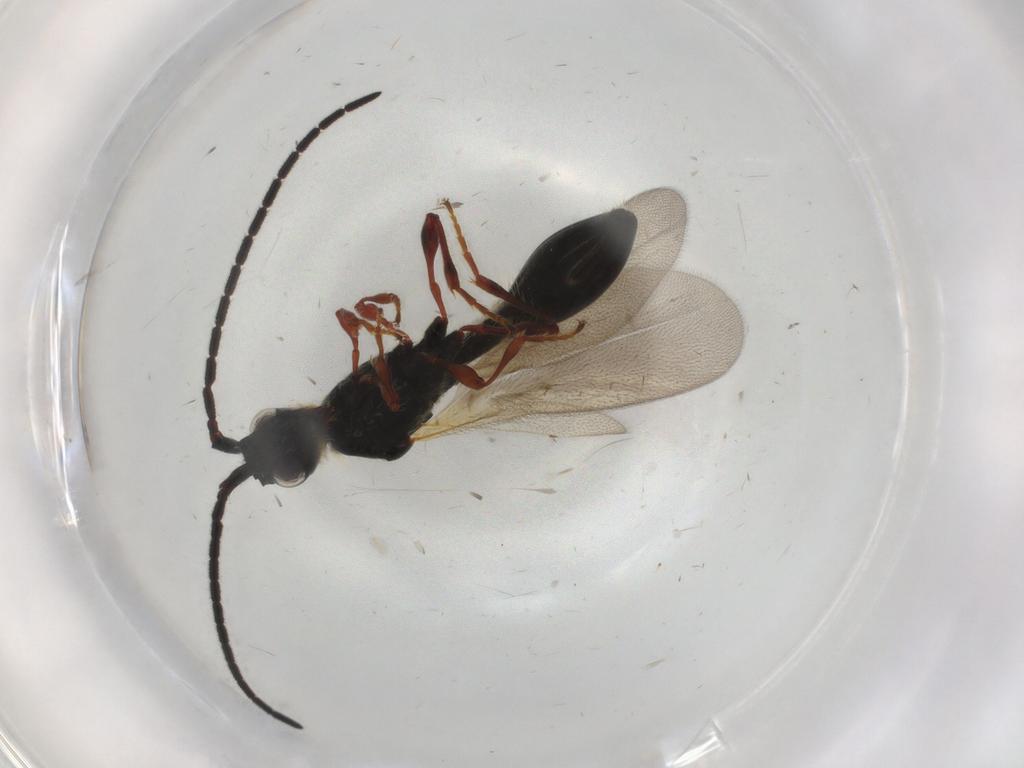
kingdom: Animalia
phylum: Arthropoda
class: Insecta
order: Hymenoptera
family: Diapriidae
